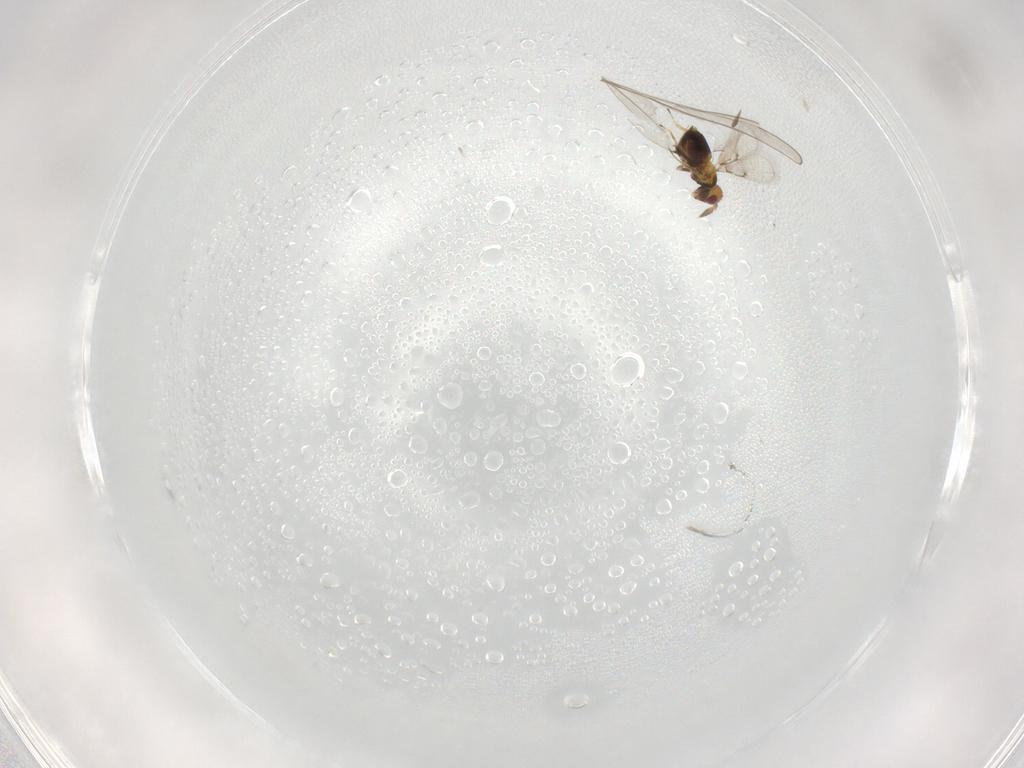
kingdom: Animalia
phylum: Arthropoda
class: Insecta
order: Hymenoptera
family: Trichogrammatidae
